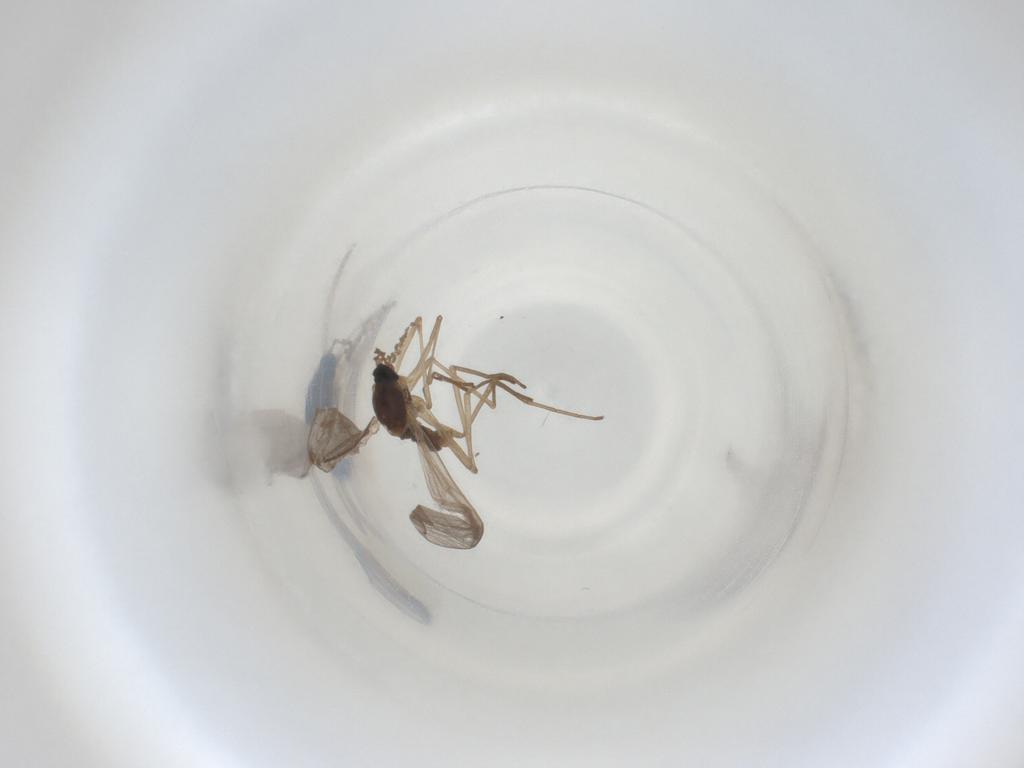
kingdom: Animalia
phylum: Arthropoda
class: Insecta
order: Diptera
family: Cecidomyiidae
